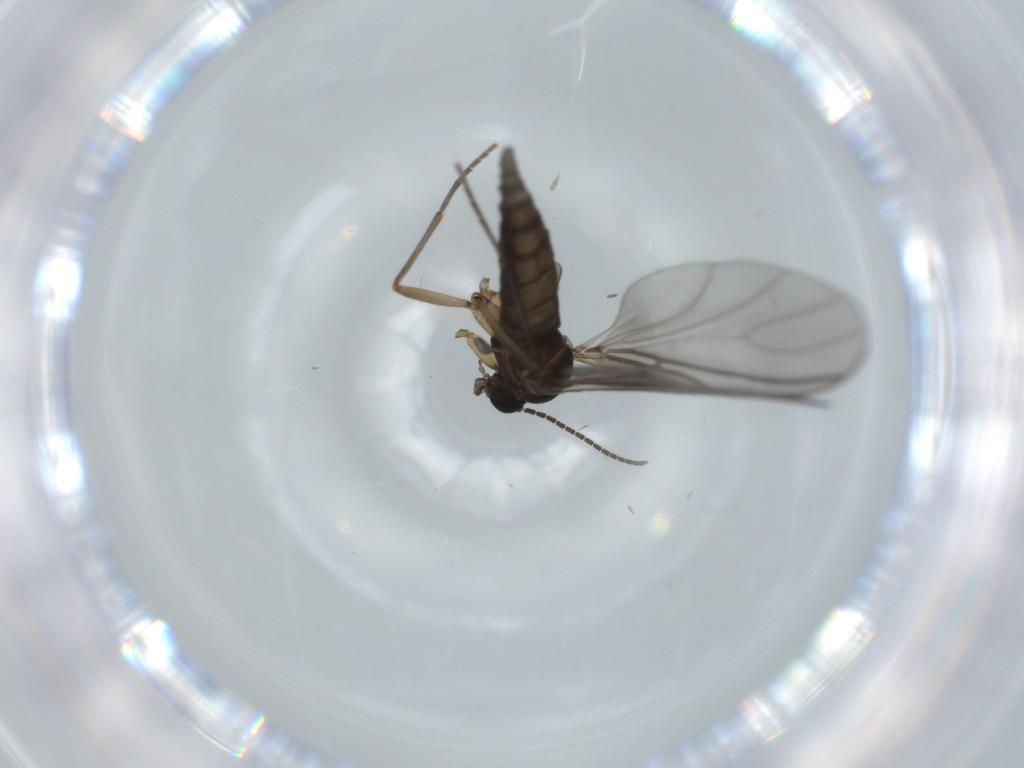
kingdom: Animalia
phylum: Arthropoda
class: Insecta
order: Diptera
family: Sciaridae
